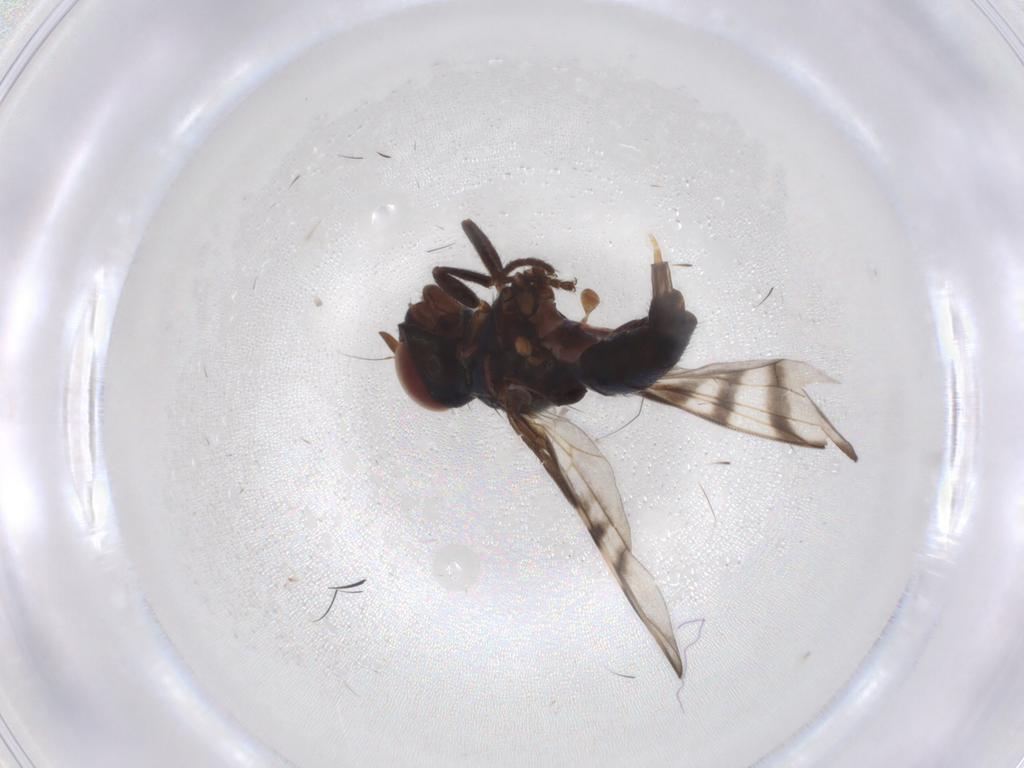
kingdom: Animalia
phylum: Arthropoda
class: Insecta
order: Diptera
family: Platystomatidae
